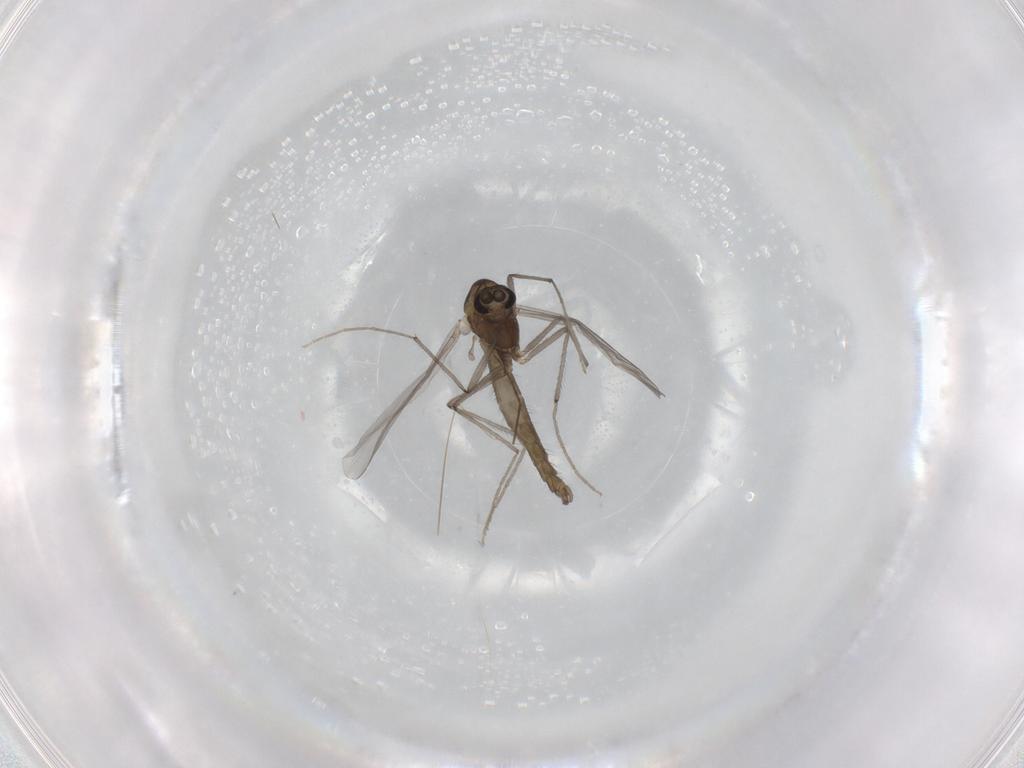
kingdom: Animalia
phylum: Arthropoda
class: Insecta
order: Diptera
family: Chironomidae
